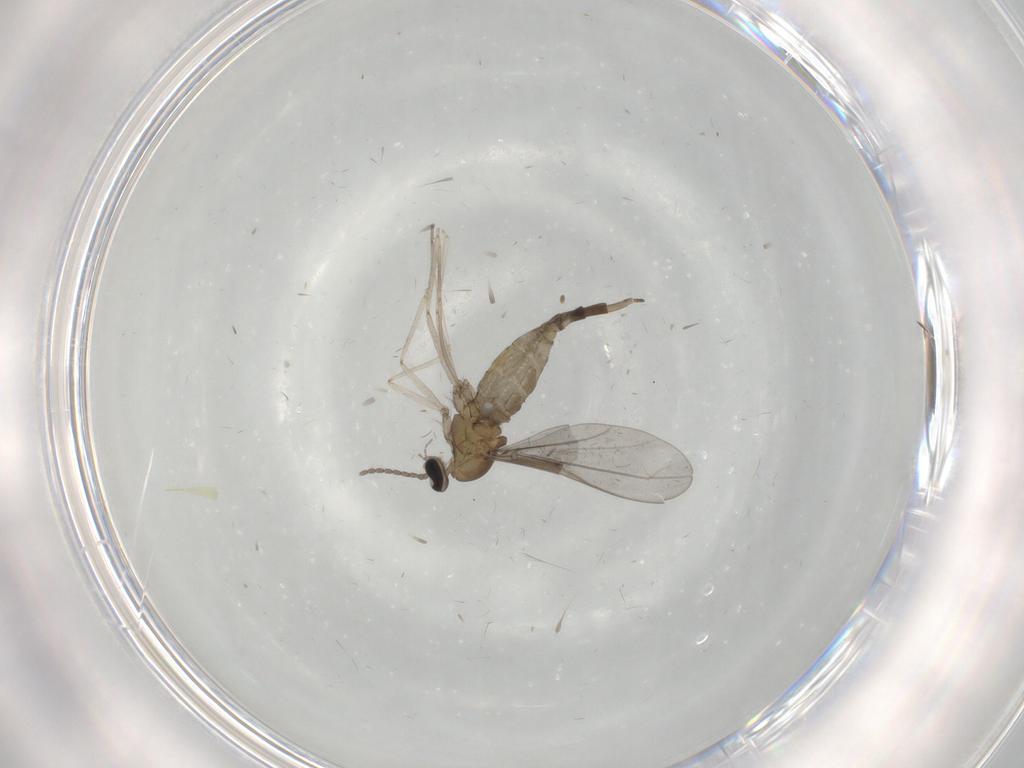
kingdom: Animalia
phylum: Arthropoda
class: Insecta
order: Diptera
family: Cecidomyiidae
